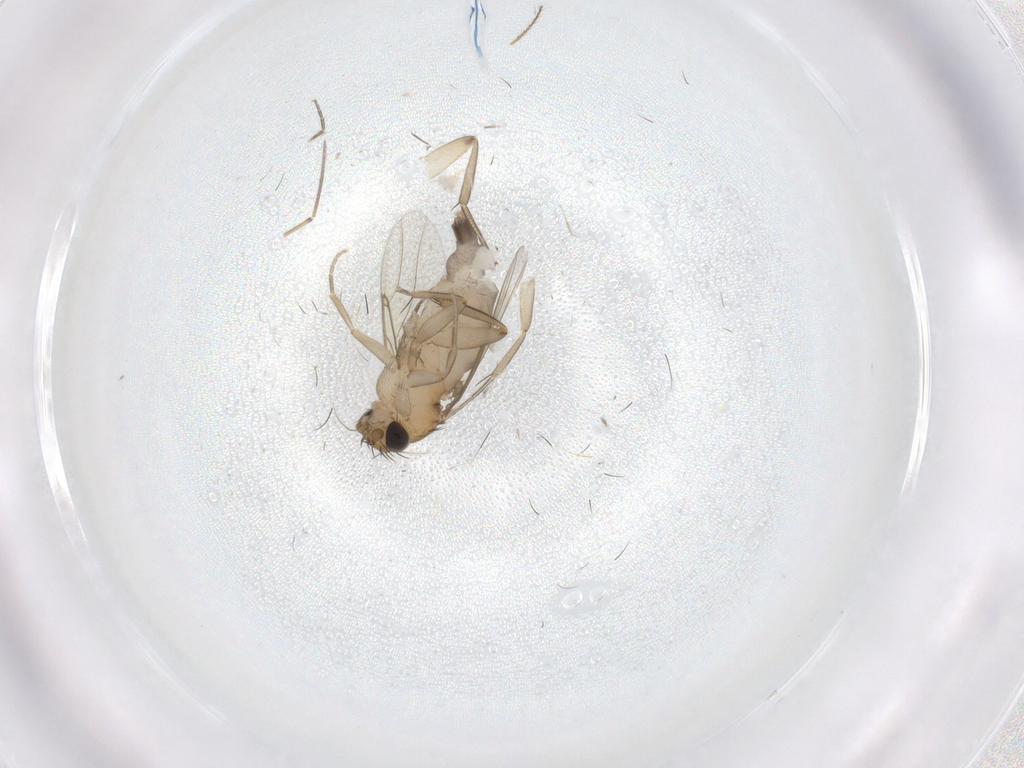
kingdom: Animalia
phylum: Arthropoda
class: Insecta
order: Diptera
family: Phoridae
